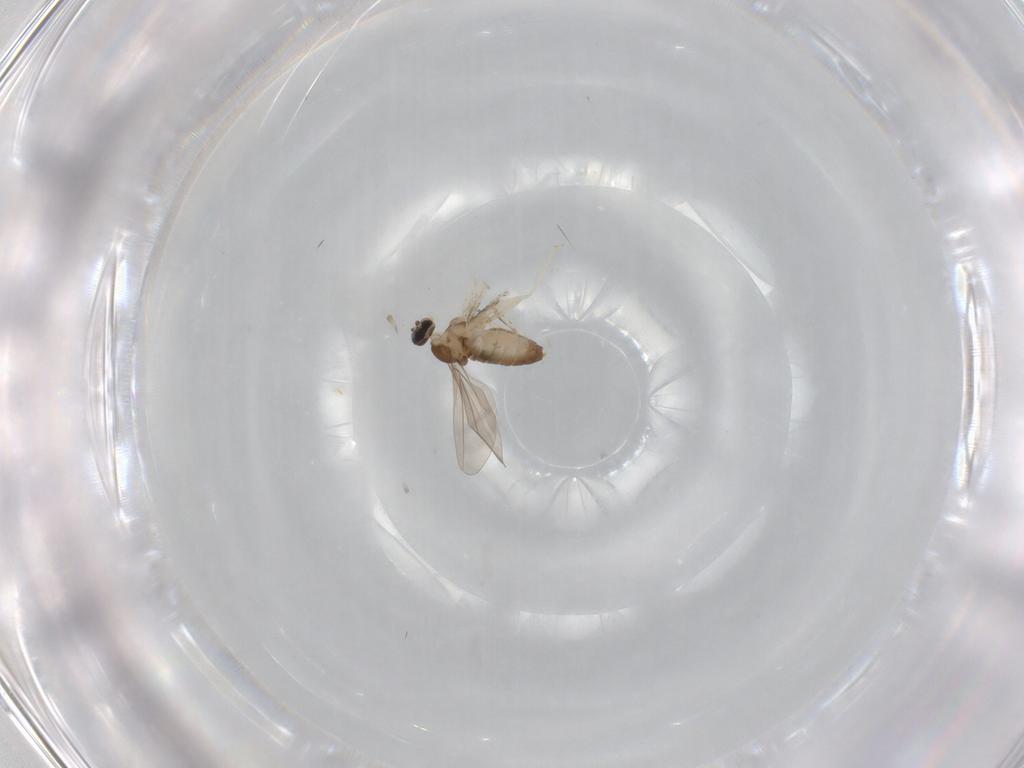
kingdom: Animalia
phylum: Arthropoda
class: Insecta
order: Diptera
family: Cecidomyiidae
